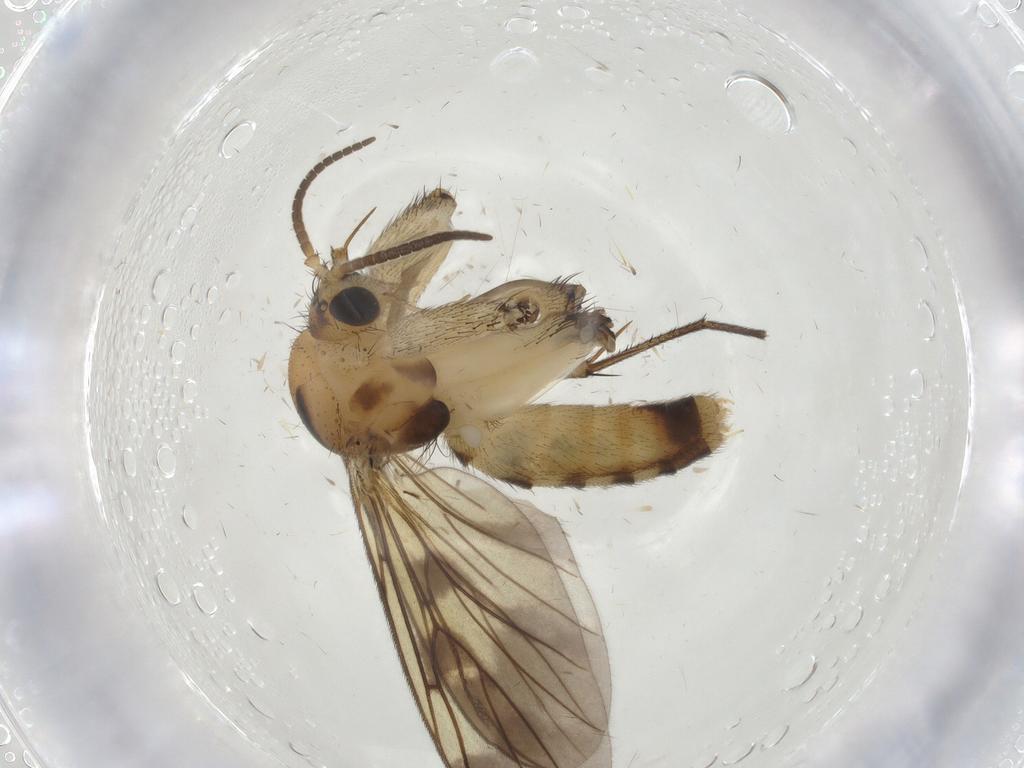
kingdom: Animalia
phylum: Arthropoda
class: Insecta
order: Diptera
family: Mycetophilidae
